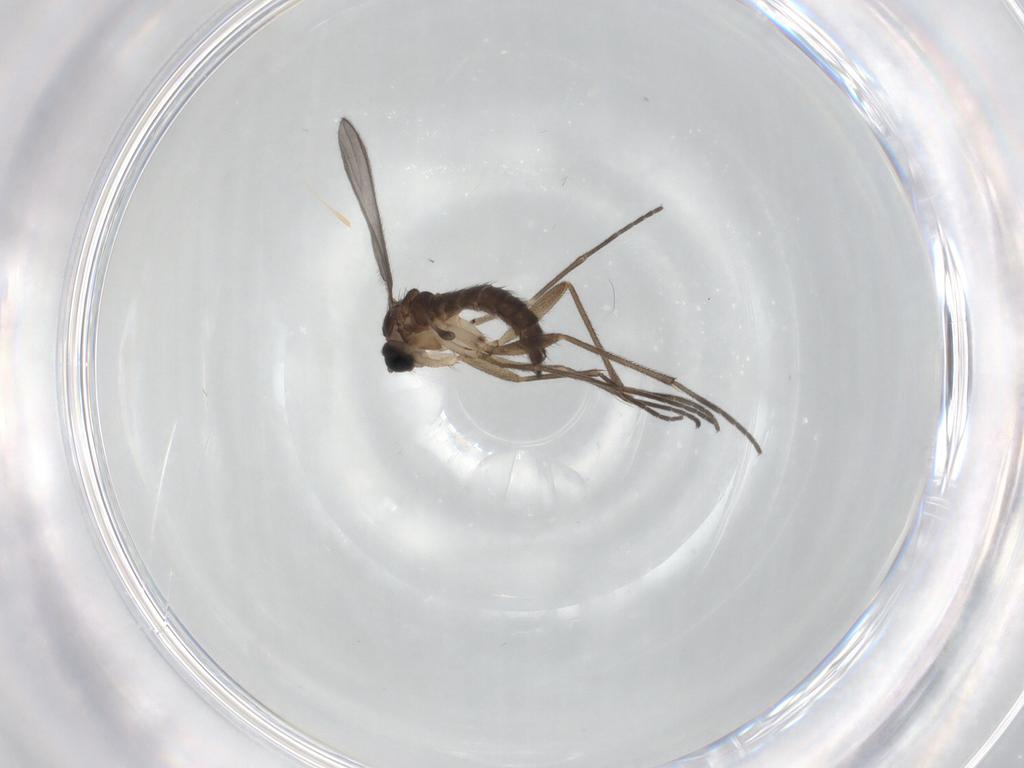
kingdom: Animalia
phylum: Arthropoda
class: Insecta
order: Diptera
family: Sciaridae
